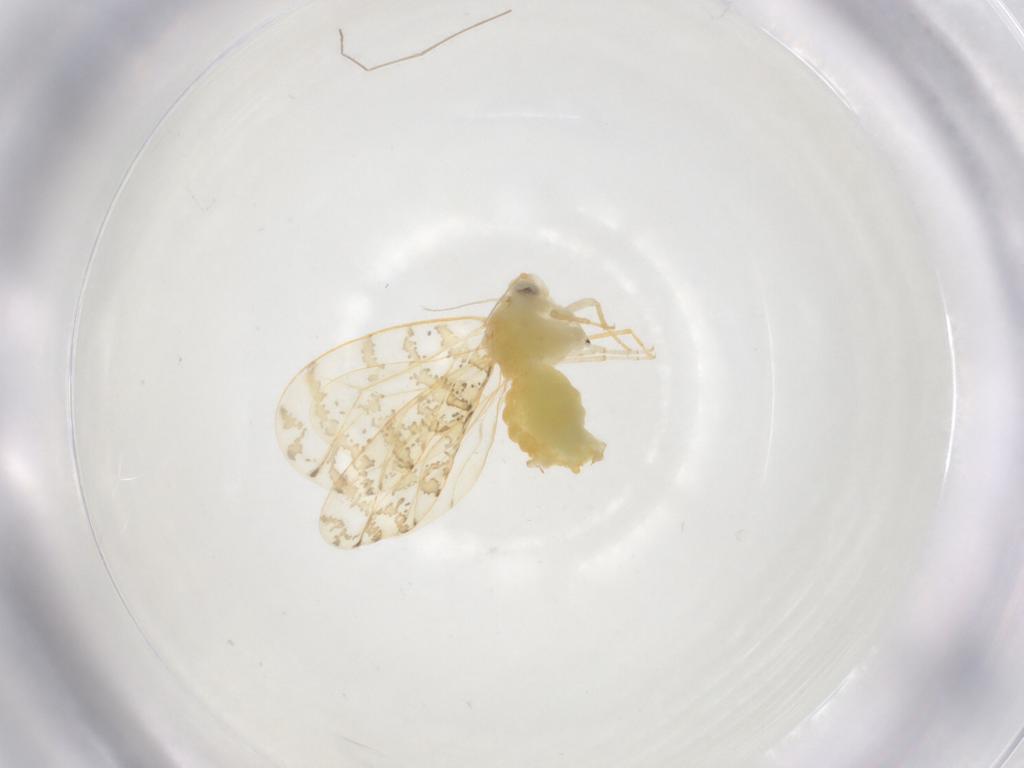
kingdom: Animalia
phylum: Arthropoda
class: Insecta
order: Hemiptera
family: Aleyrodidae
